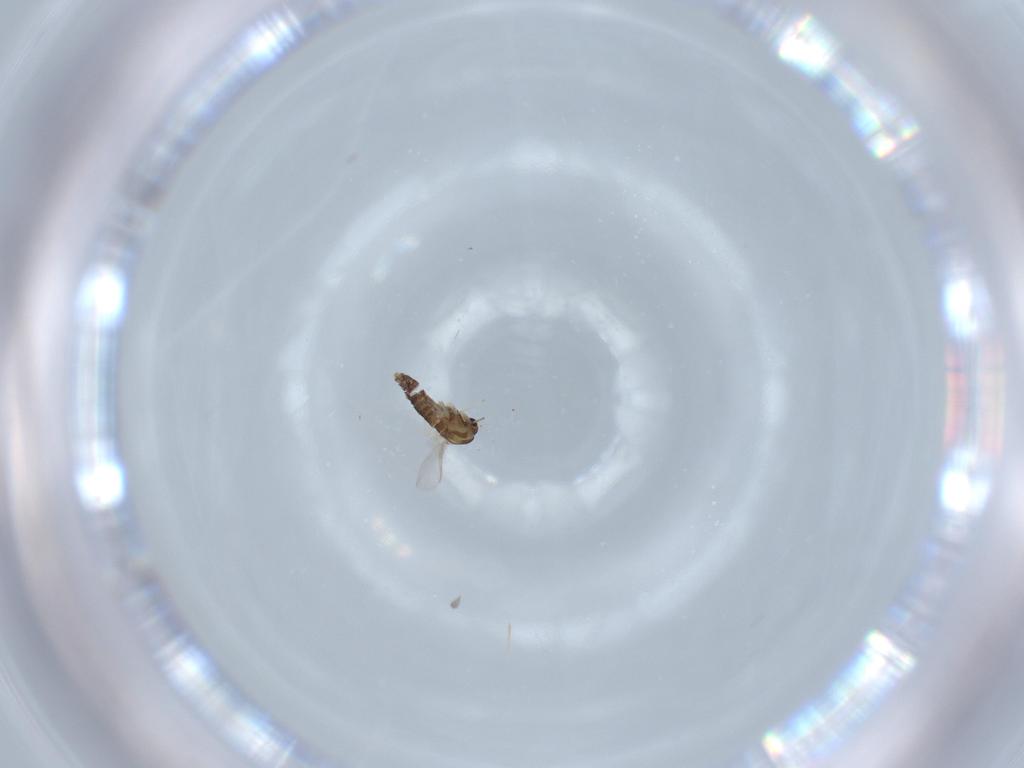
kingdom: Animalia
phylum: Arthropoda
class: Insecta
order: Diptera
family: Chironomidae
